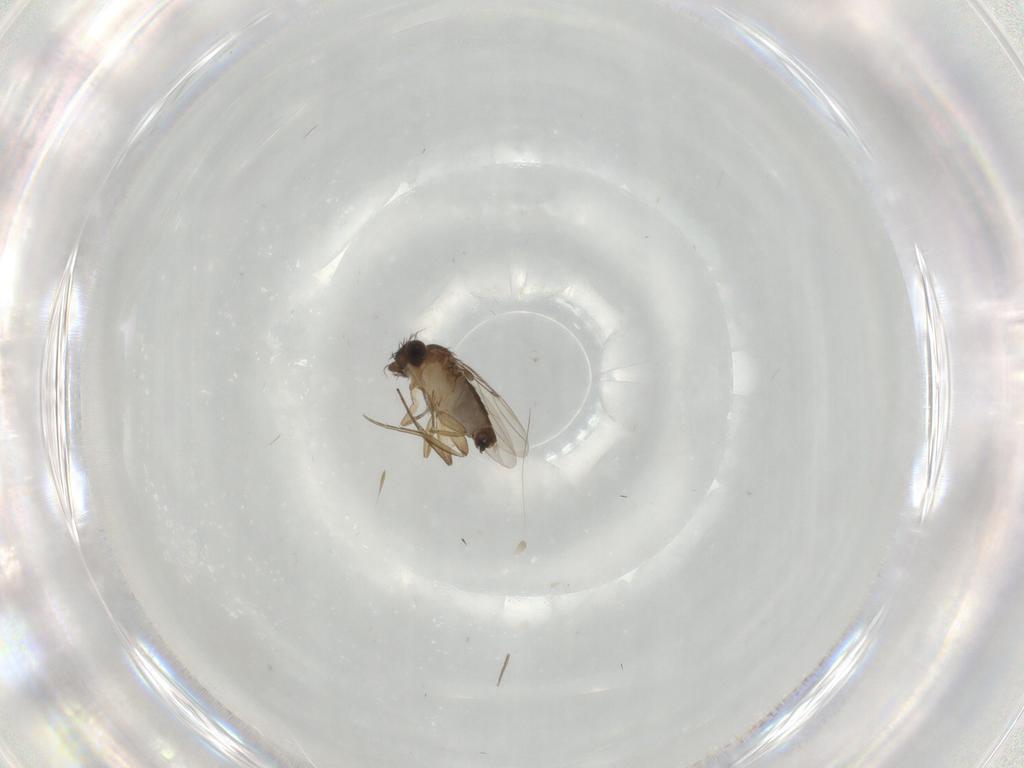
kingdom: Animalia
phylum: Arthropoda
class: Insecta
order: Diptera
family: Phoridae
